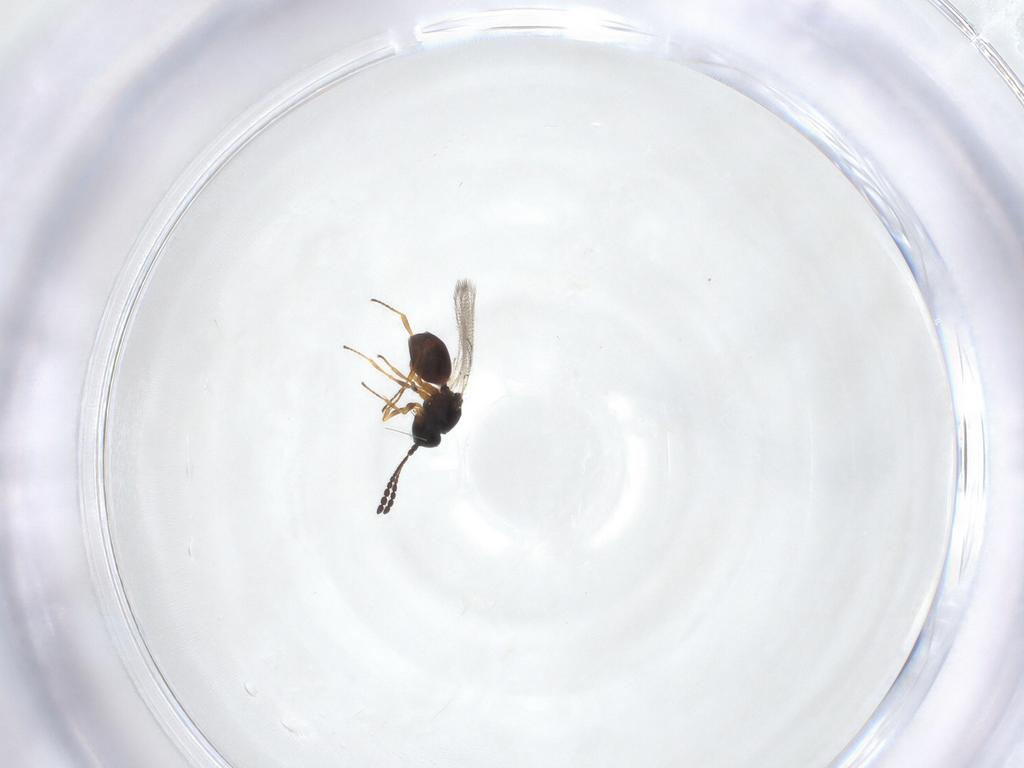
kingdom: Animalia
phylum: Arthropoda
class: Insecta
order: Hymenoptera
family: Figitidae
